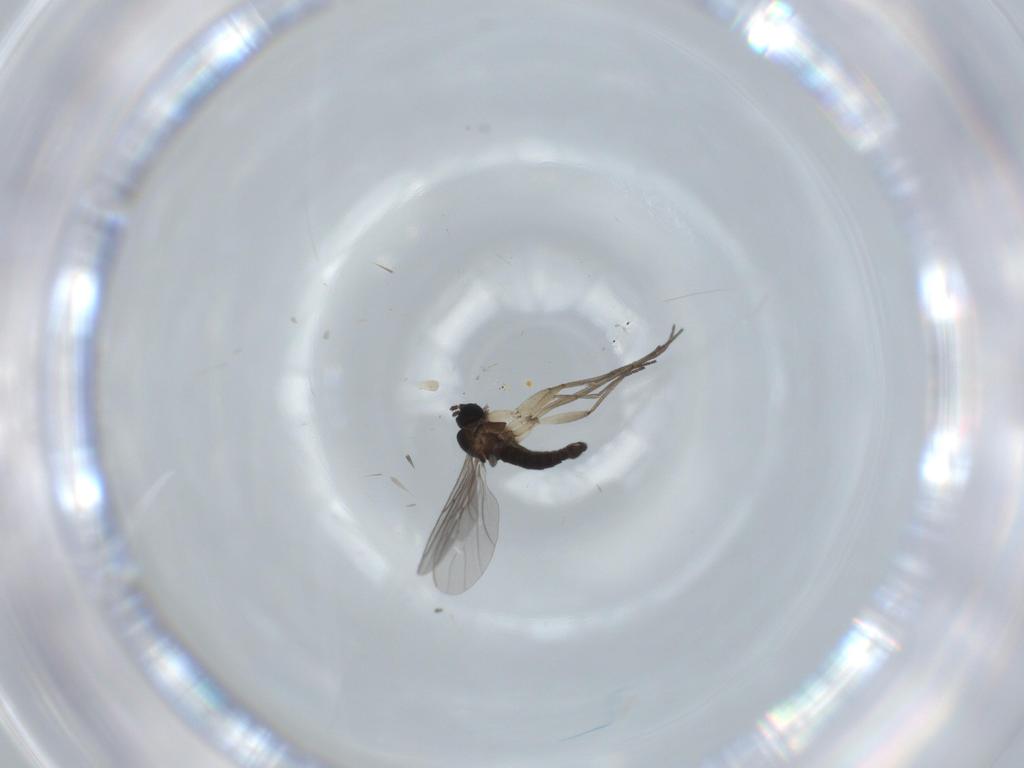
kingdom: Animalia
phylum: Arthropoda
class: Insecta
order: Diptera
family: Sciaridae
